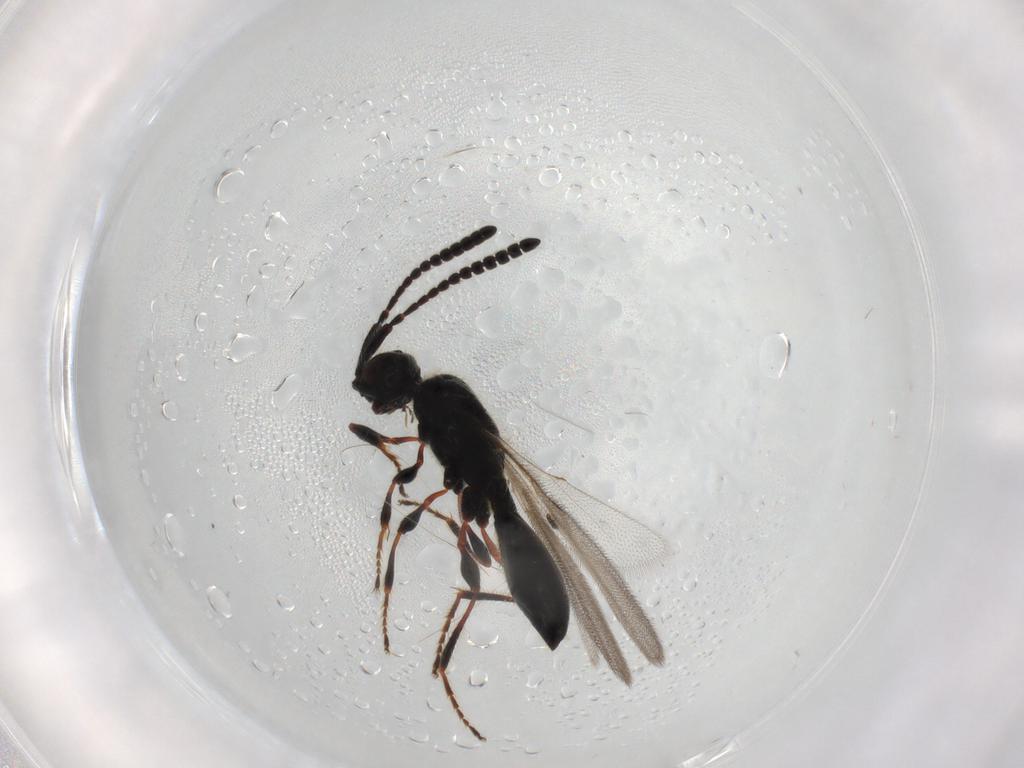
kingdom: Animalia
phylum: Arthropoda
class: Insecta
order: Hymenoptera
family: Diapriidae
